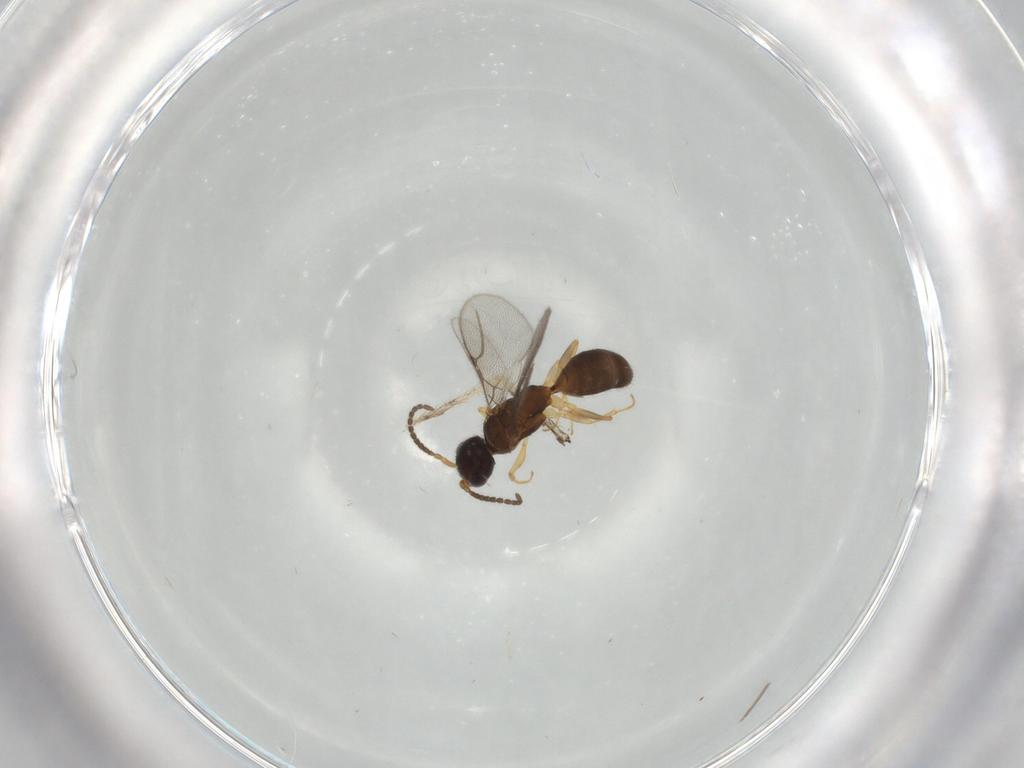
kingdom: Animalia
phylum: Arthropoda
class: Insecta
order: Hymenoptera
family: Bethylidae
